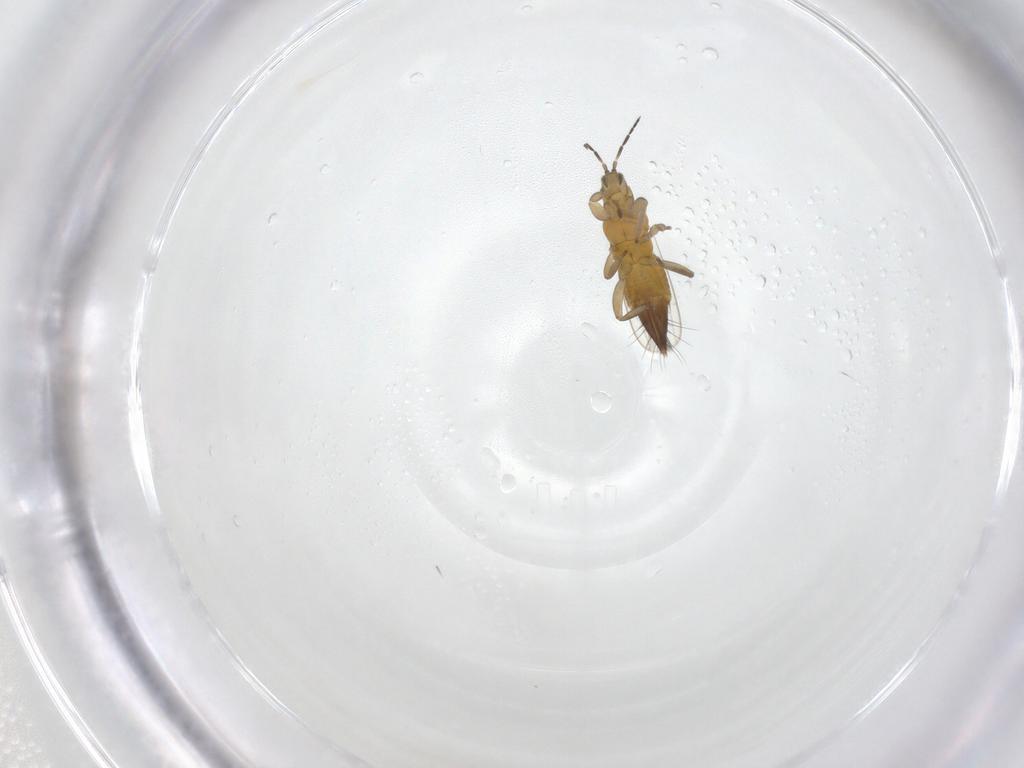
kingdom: Animalia
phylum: Arthropoda
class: Insecta
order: Thysanoptera
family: Aeolothripidae
